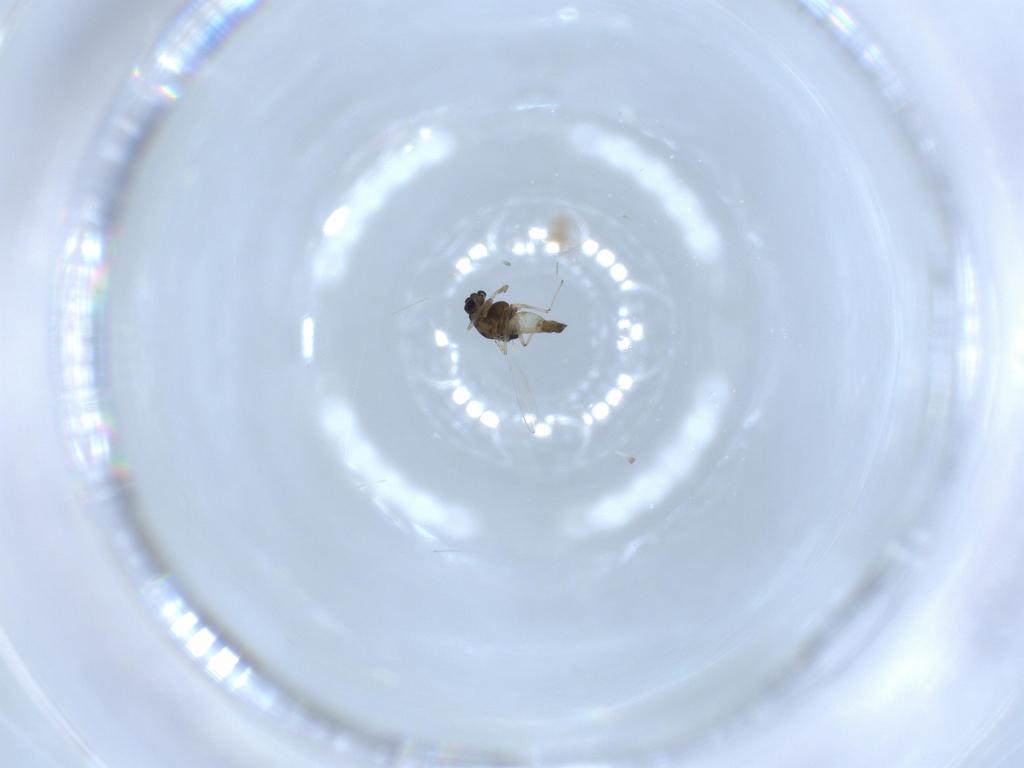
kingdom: Animalia
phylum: Arthropoda
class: Insecta
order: Diptera
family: Chironomidae
